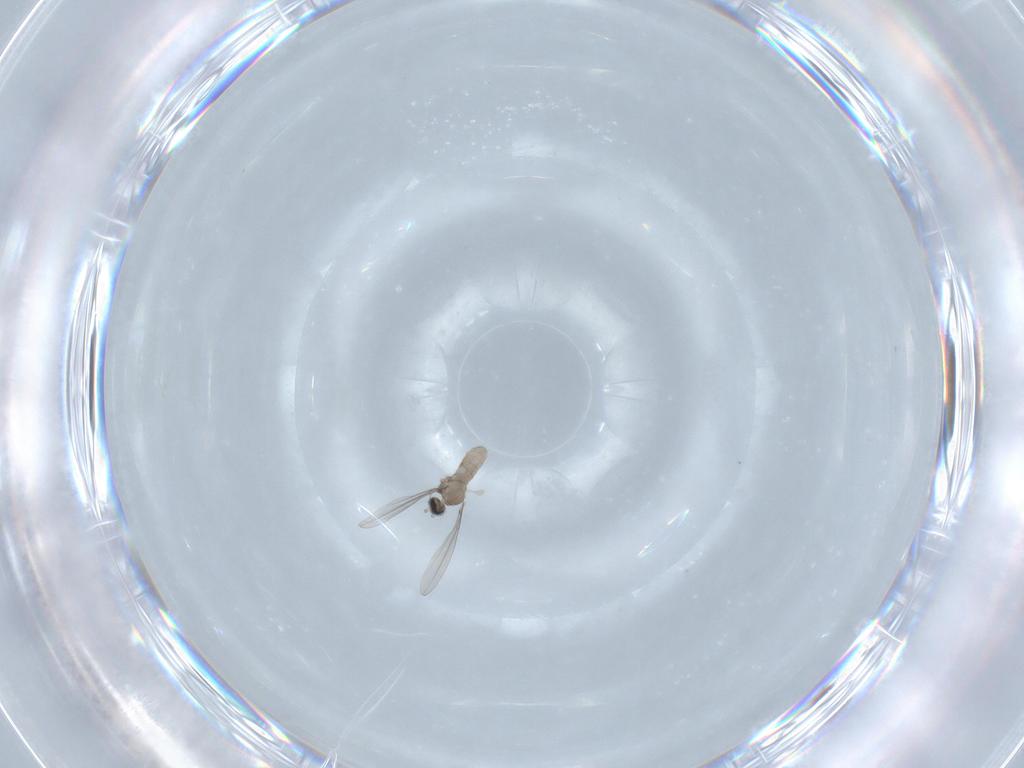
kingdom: Animalia
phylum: Arthropoda
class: Insecta
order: Diptera
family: Cecidomyiidae
